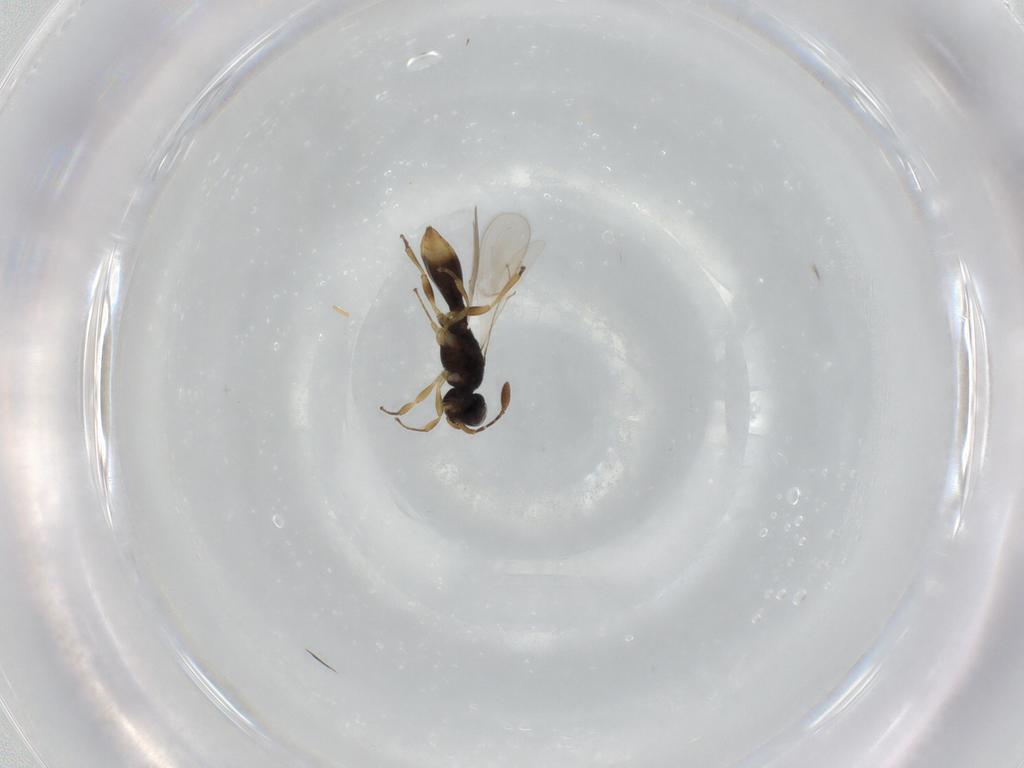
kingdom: Animalia
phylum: Arthropoda
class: Insecta
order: Hymenoptera
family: Scelionidae
